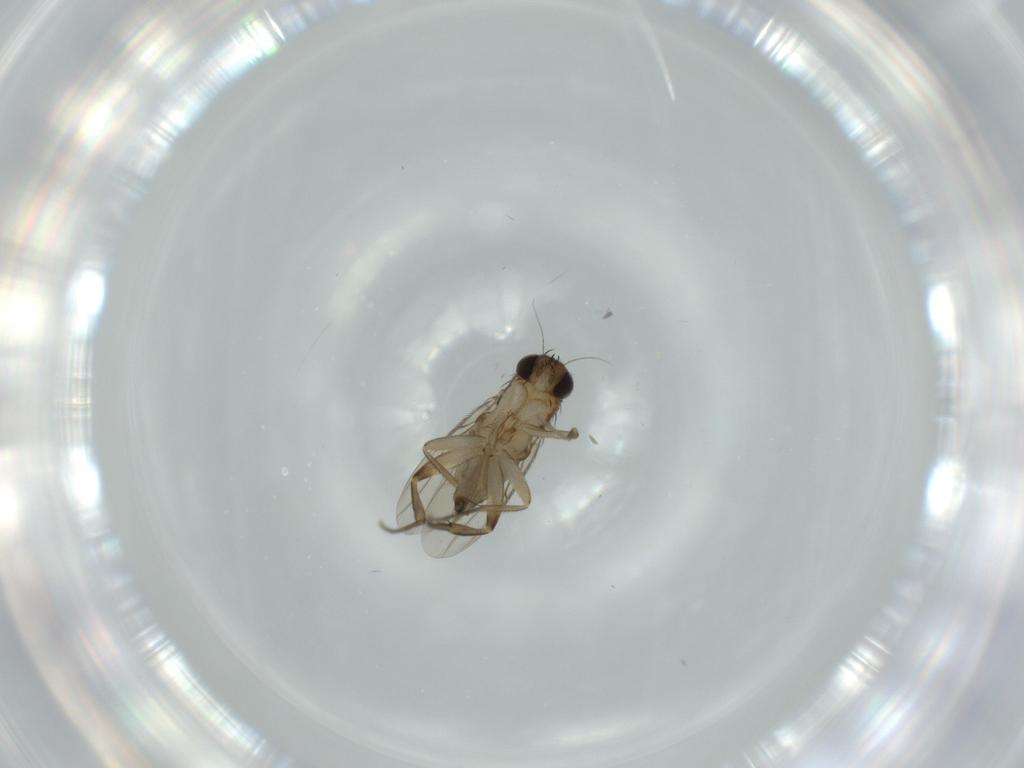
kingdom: Animalia
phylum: Arthropoda
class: Insecta
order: Diptera
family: Phoridae
